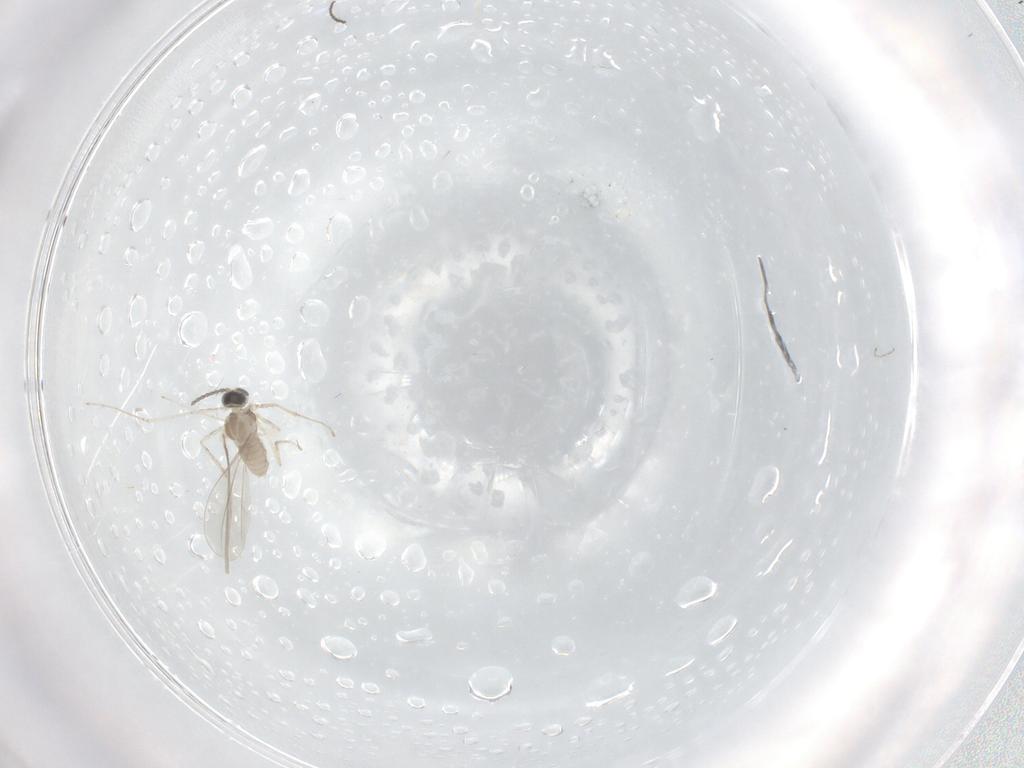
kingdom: Animalia
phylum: Arthropoda
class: Insecta
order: Diptera
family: Cecidomyiidae
